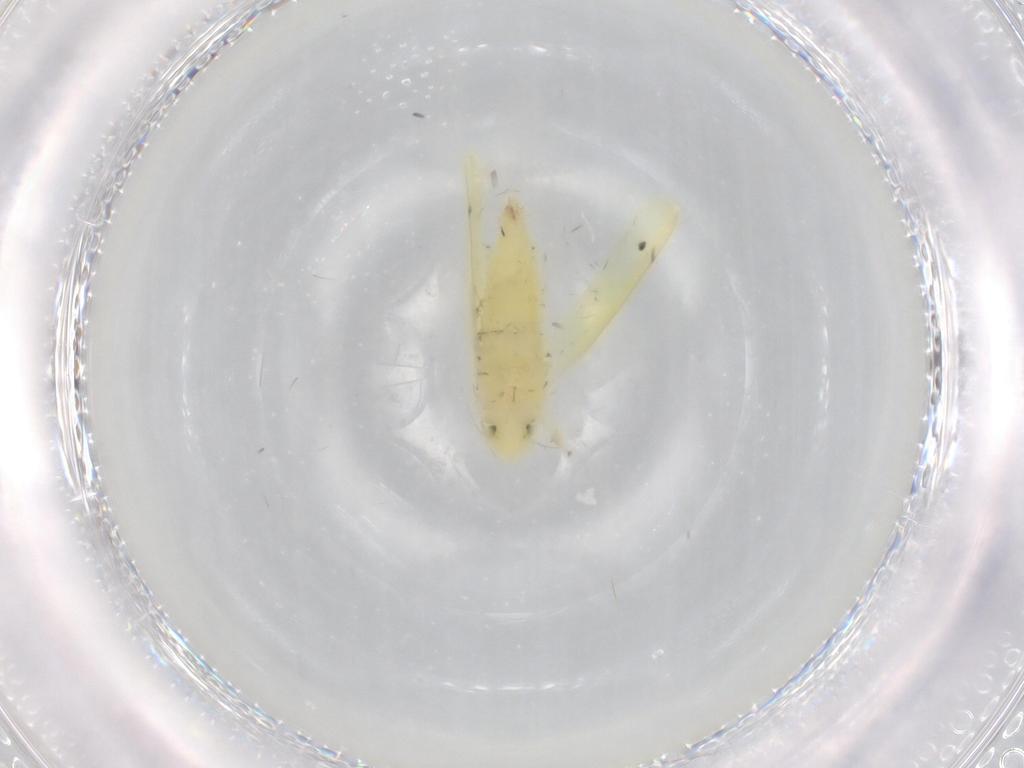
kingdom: Animalia
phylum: Arthropoda
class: Insecta
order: Hemiptera
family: Cicadellidae
